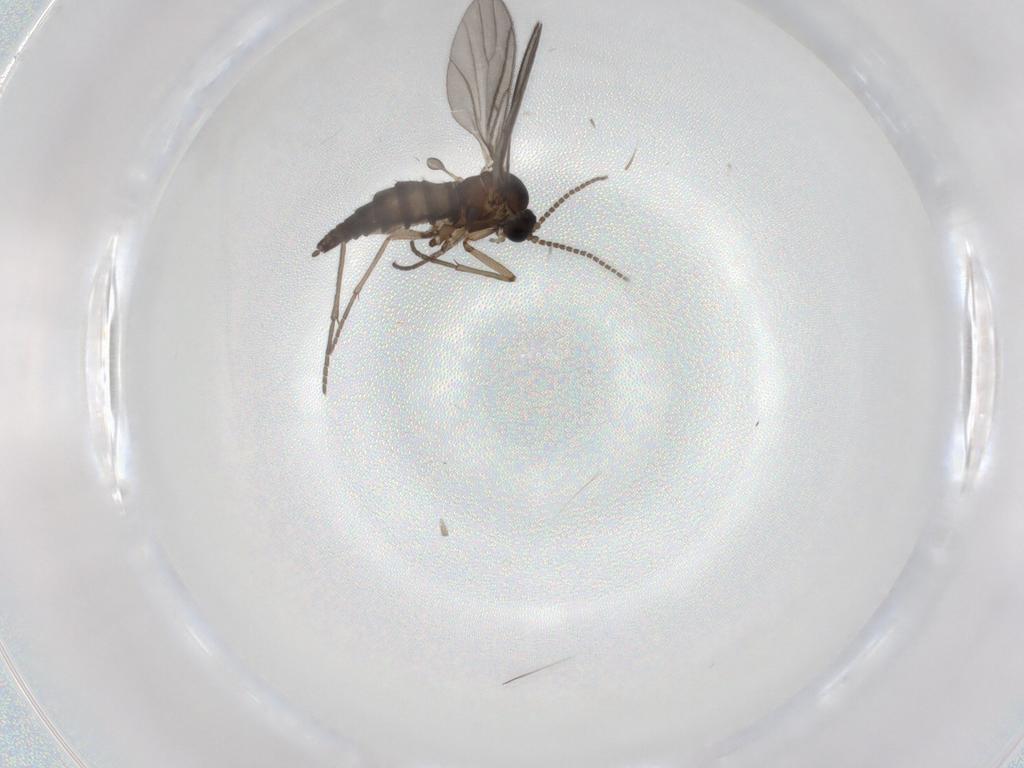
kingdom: Animalia
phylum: Arthropoda
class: Insecta
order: Diptera
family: Sciaridae
